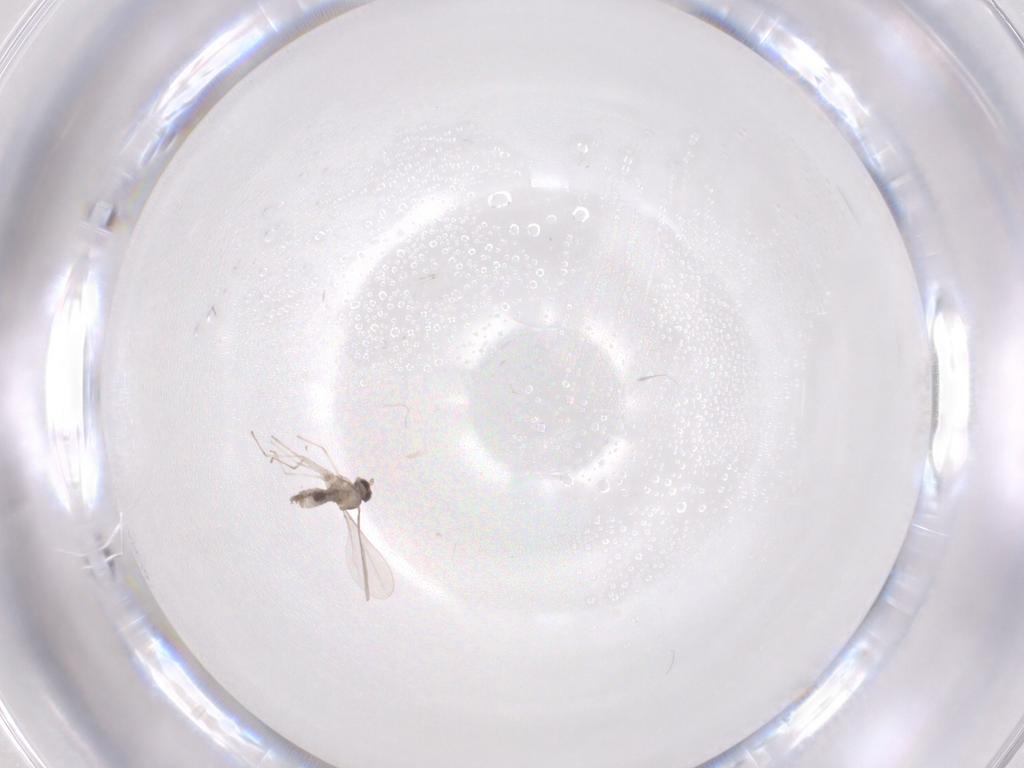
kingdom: Animalia
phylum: Arthropoda
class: Insecta
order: Diptera
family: Cecidomyiidae
